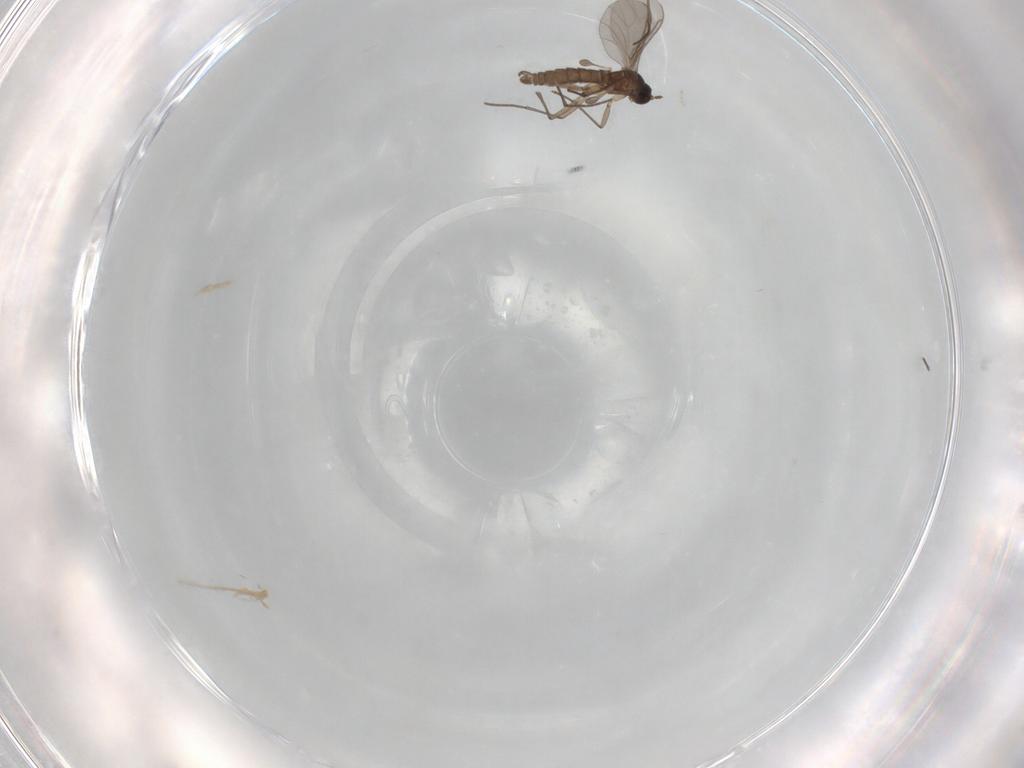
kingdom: Animalia
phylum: Arthropoda
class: Insecta
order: Diptera
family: Sciaridae
